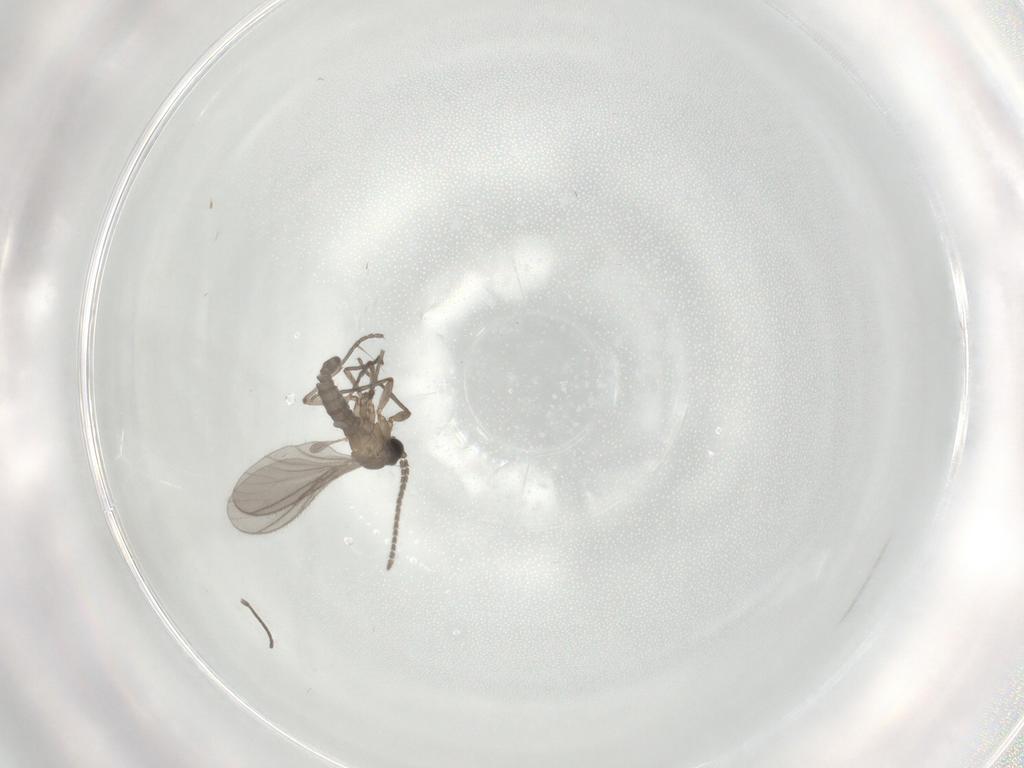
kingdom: Animalia
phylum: Arthropoda
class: Insecta
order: Diptera
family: Sciaridae
